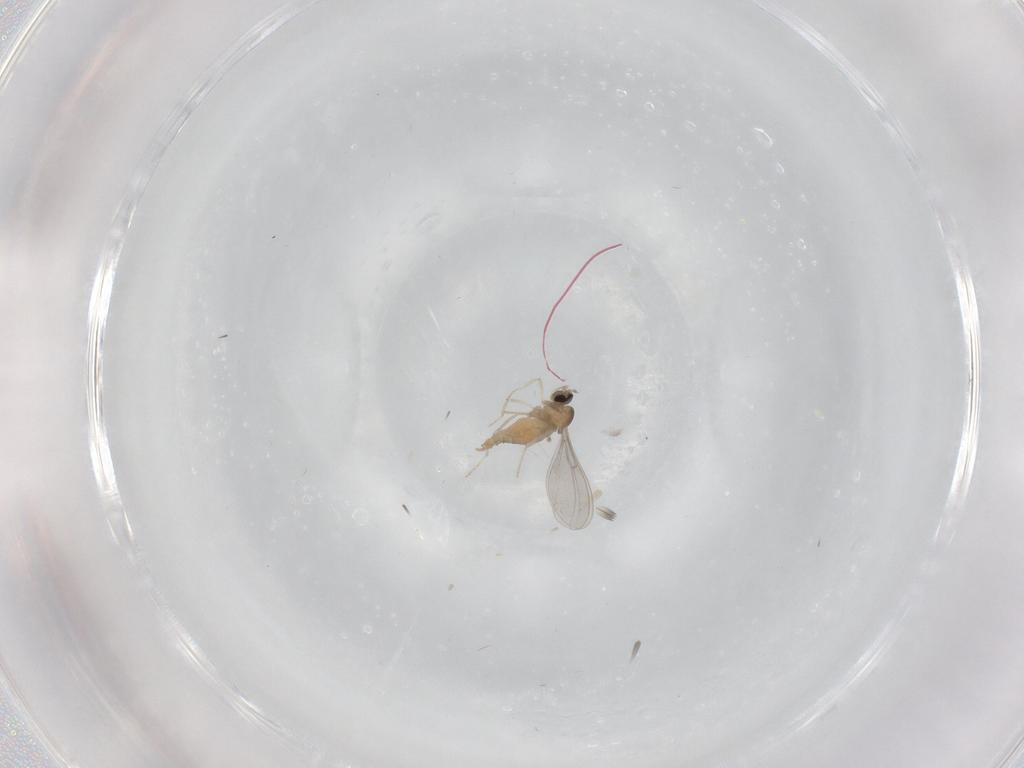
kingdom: Animalia
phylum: Arthropoda
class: Insecta
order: Diptera
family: Cecidomyiidae
